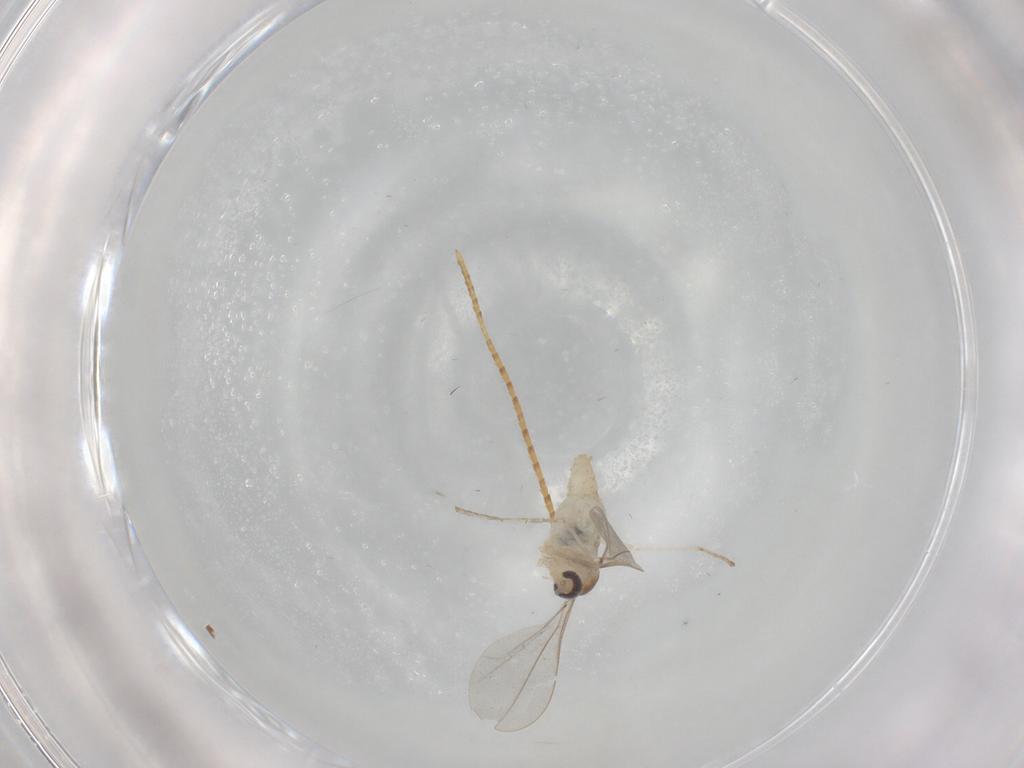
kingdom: Animalia
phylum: Arthropoda
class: Insecta
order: Diptera
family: Cecidomyiidae
